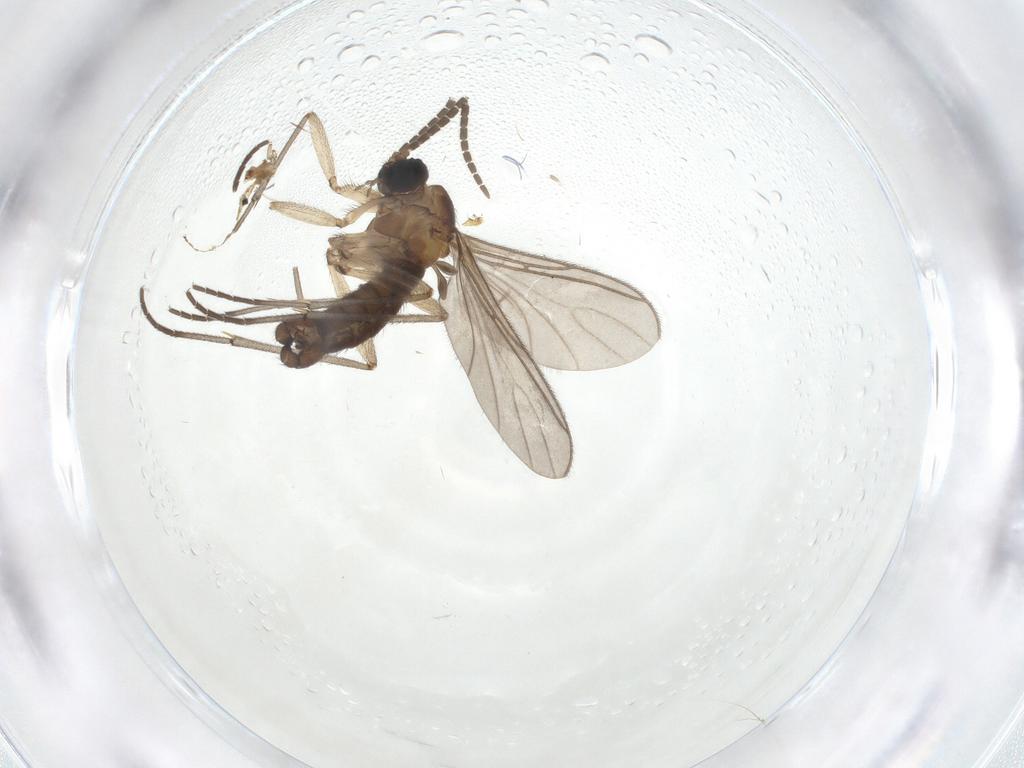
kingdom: Animalia
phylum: Arthropoda
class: Insecta
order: Diptera
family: Sciaridae
